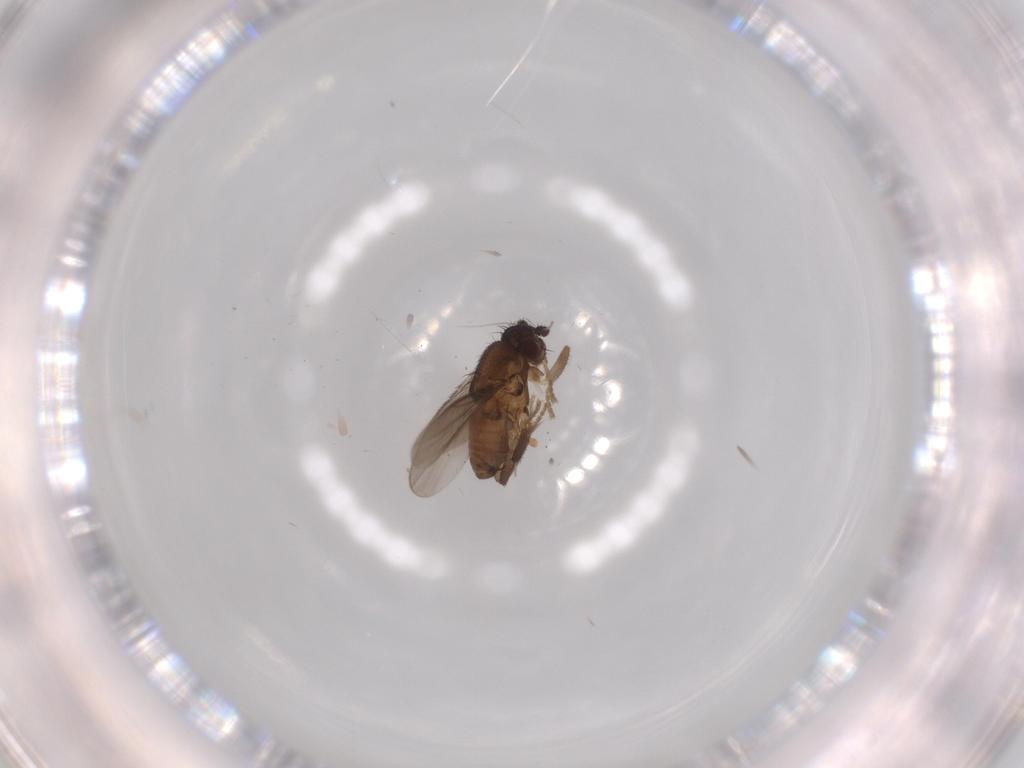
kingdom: Animalia
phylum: Arthropoda
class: Insecta
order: Diptera
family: Sphaeroceridae
